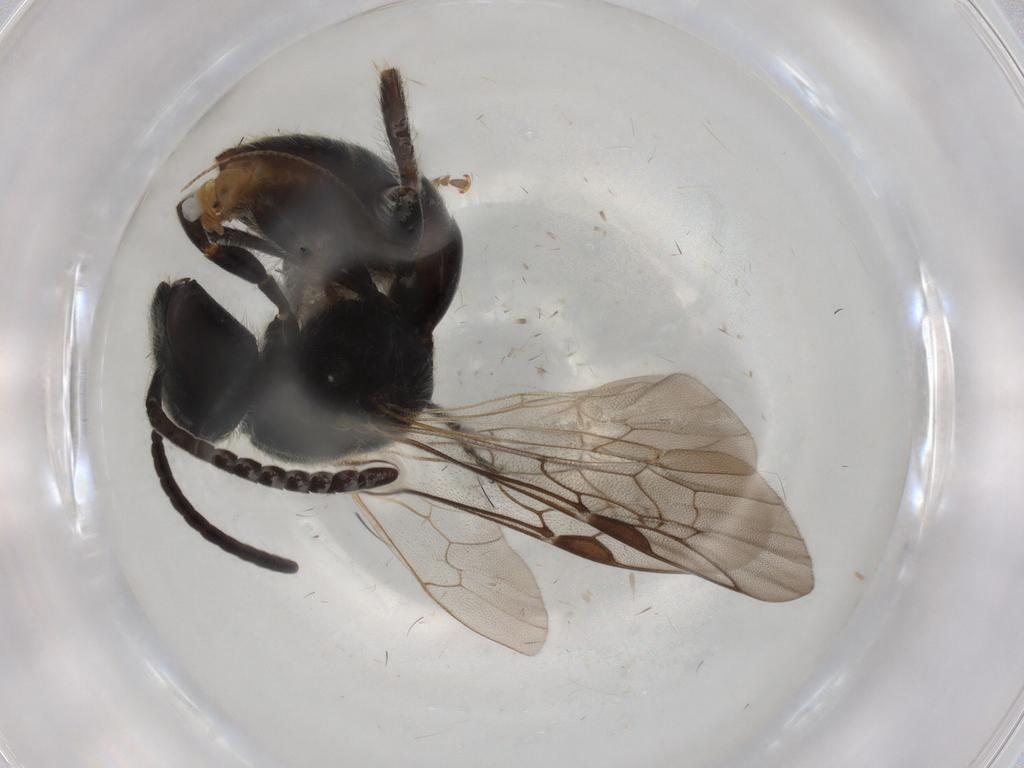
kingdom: Animalia
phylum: Arthropoda
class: Insecta
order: Hymenoptera
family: Halictidae
